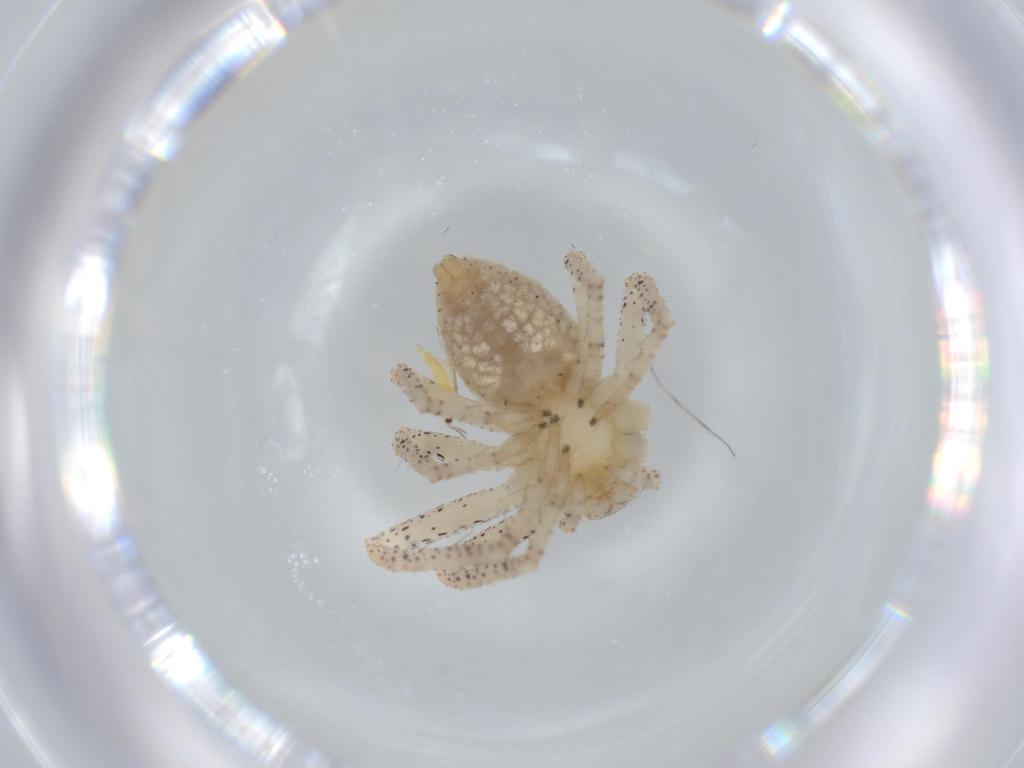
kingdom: Animalia
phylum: Arthropoda
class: Arachnida
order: Araneae
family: Philodromidae
